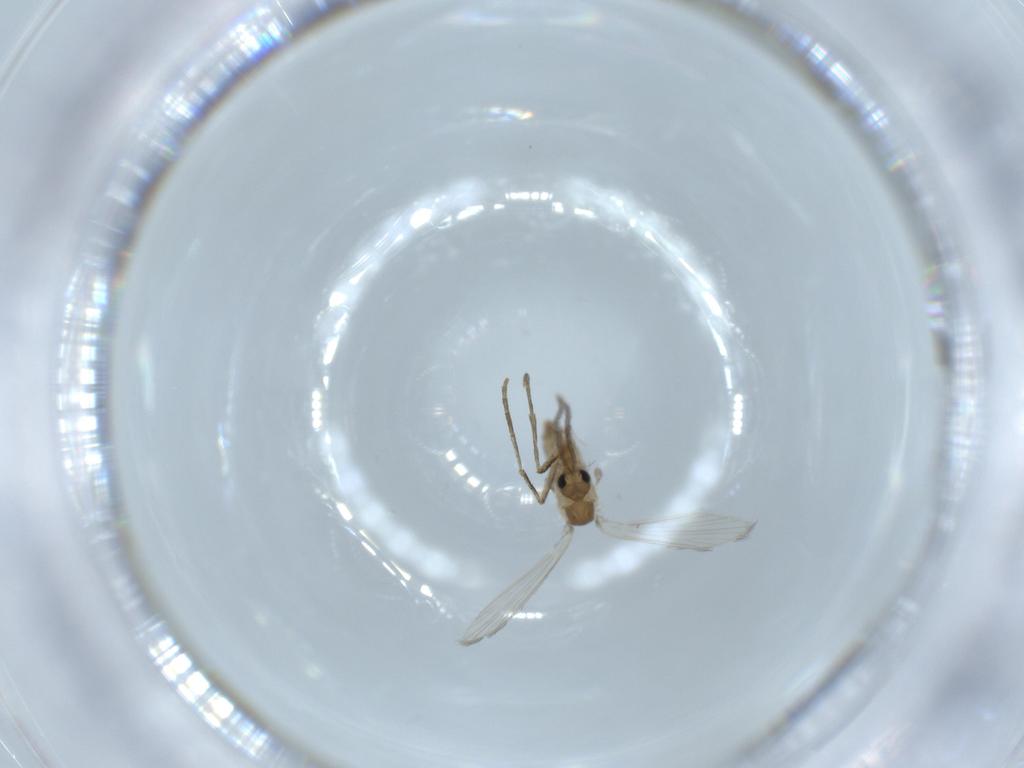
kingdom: Animalia
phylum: Arthropoda
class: Insecta
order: Diptera
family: Psychodidae
